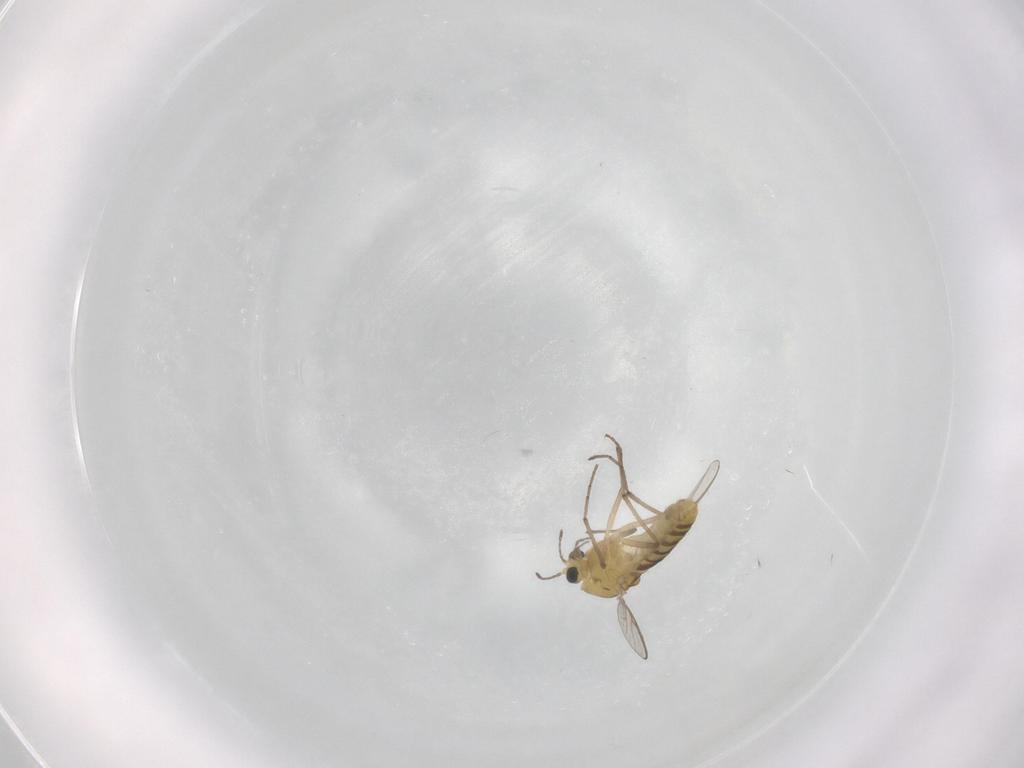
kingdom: Animalia
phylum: Arthropoda
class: Insecta
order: Diptera
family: Chironomidae
